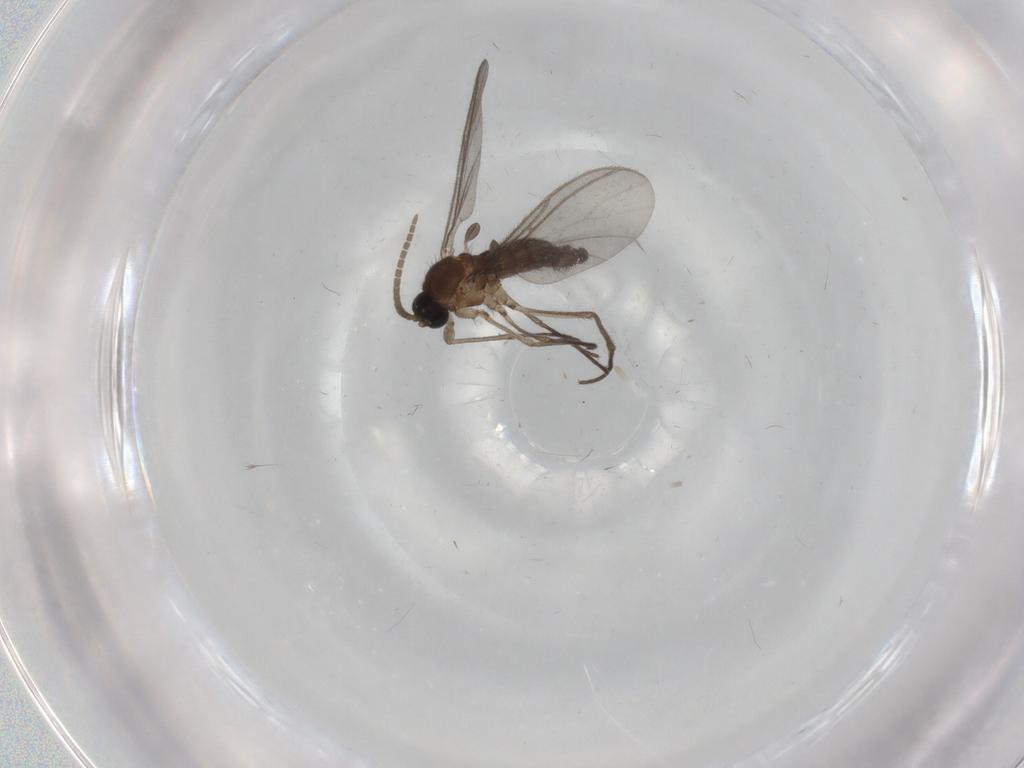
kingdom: Animalia
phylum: Arthropoda
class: Insecta
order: Diptera
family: Cecidomyiidae
